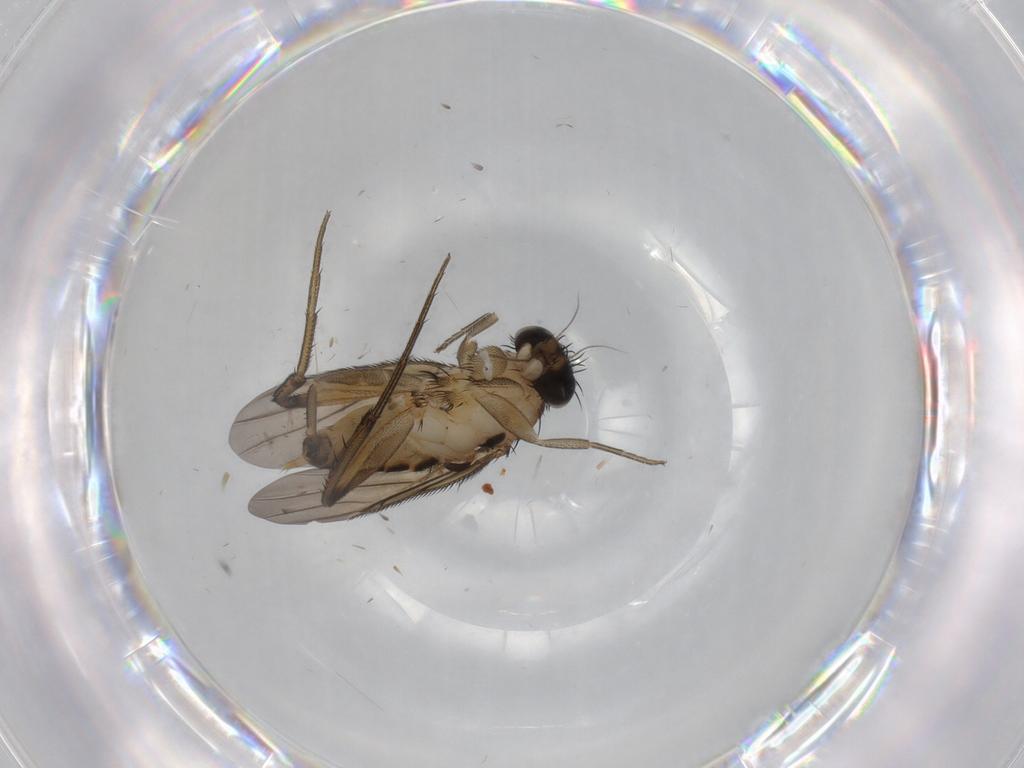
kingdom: Animalia
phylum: Arthropoda
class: Insecta
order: Diptera
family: Phoridae
